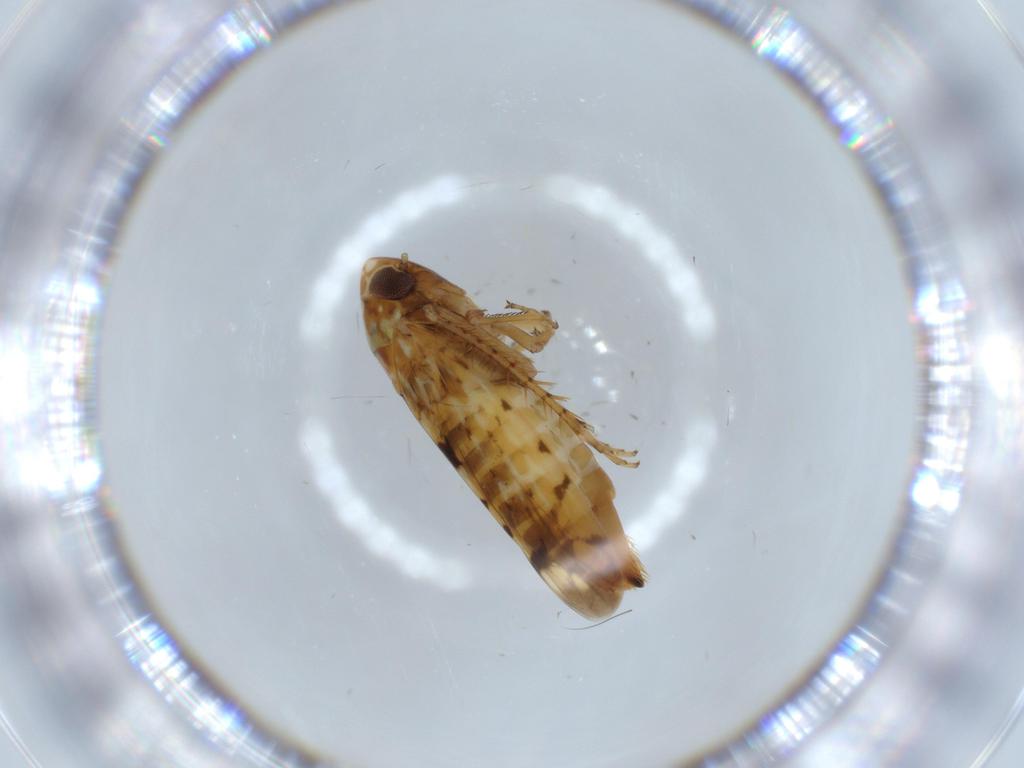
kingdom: Animalia
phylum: Arthropoda
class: Insecta
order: Hemiptera
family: Cicadellidae
